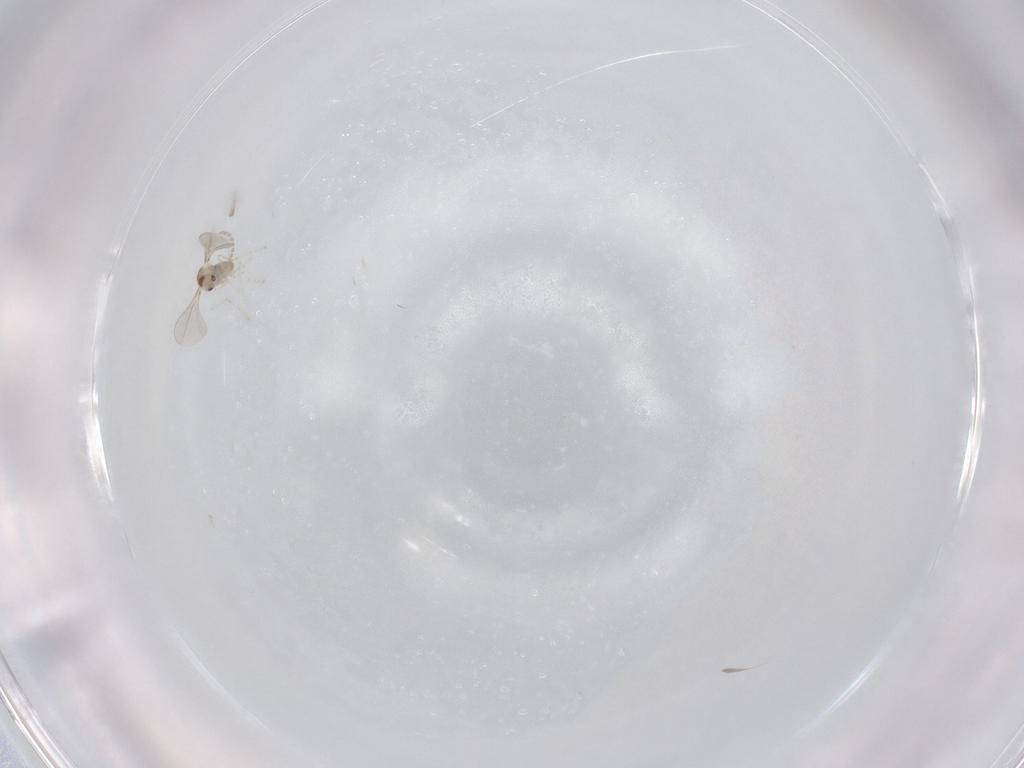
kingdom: Animalia
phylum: Arthropoda
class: Insecta
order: Diptera
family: Cecidomyiidae
